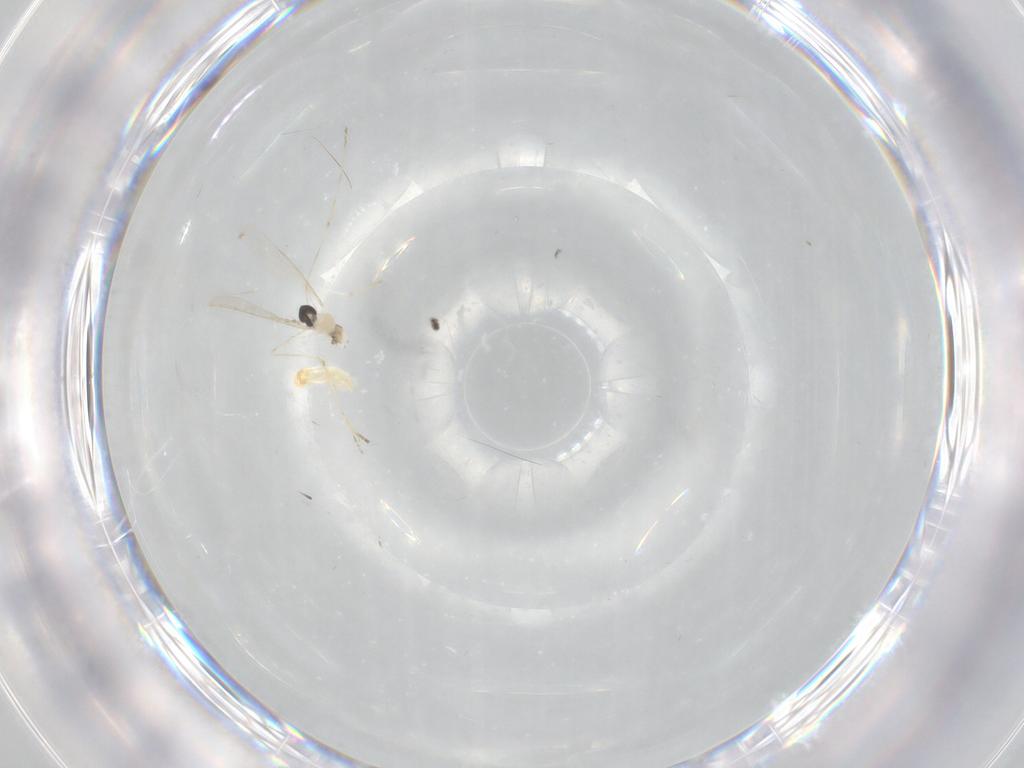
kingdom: Animalia
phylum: Arthropoda
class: Insecta
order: Diptera
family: Cecidomyiidae
